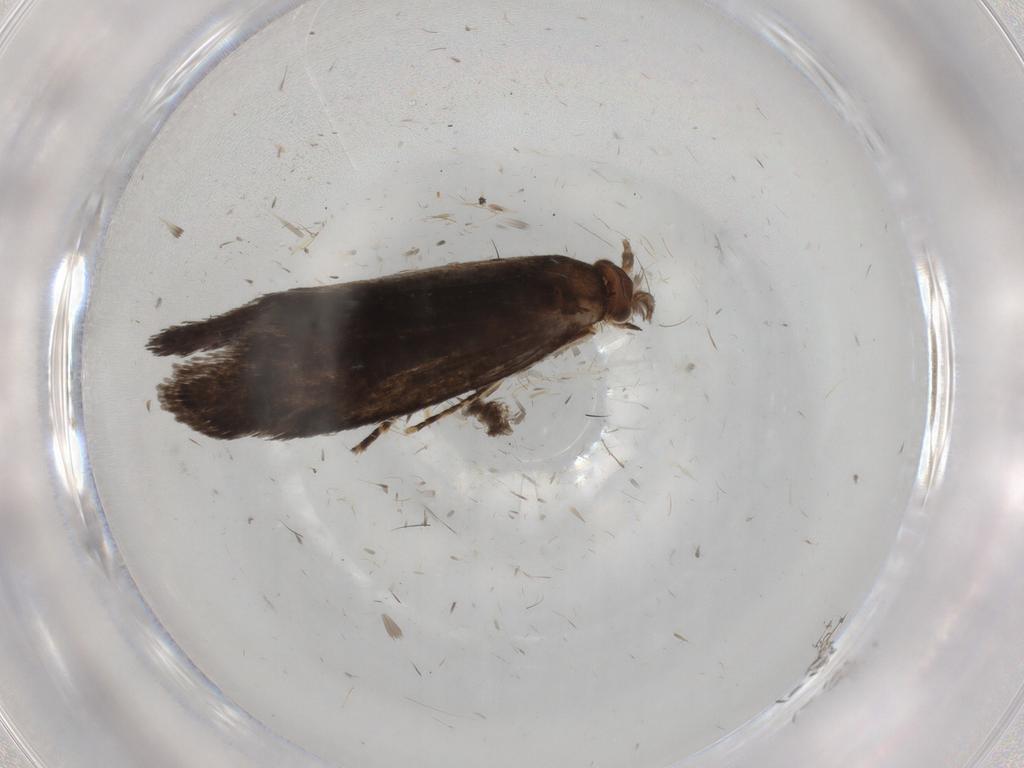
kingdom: Animalia
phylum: Arthropoda
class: Insecta
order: Lepidoptera
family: Tineidae
